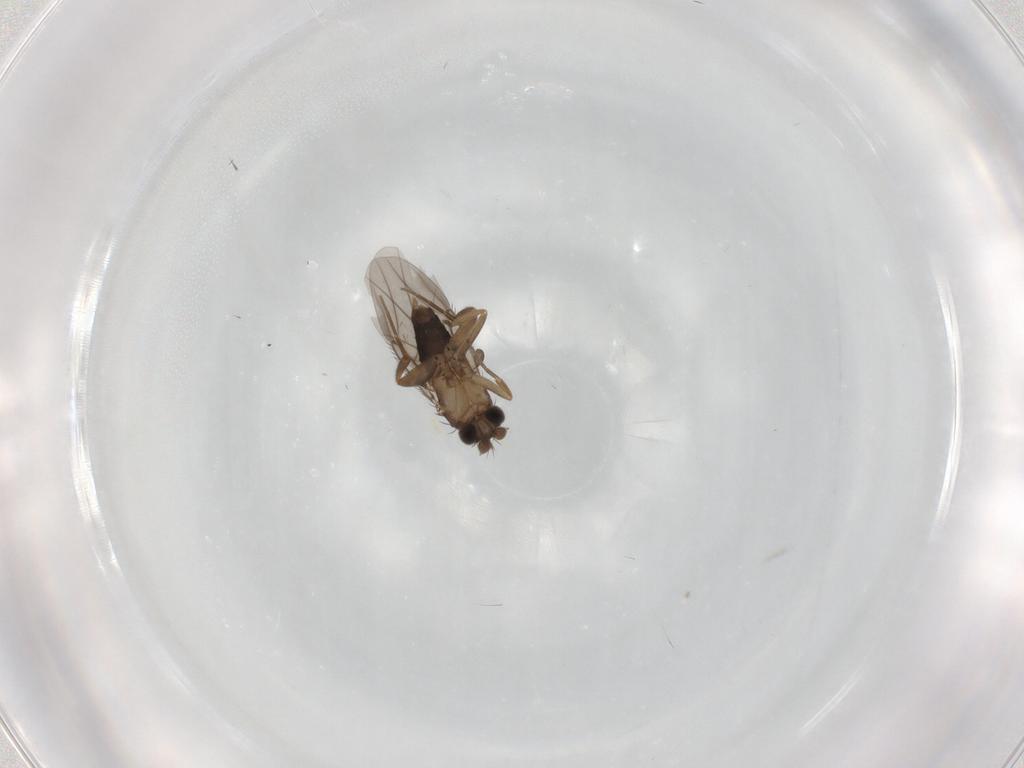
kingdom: Animalia
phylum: Arthropoda
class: Insecta
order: Diptera
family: Phoridae
